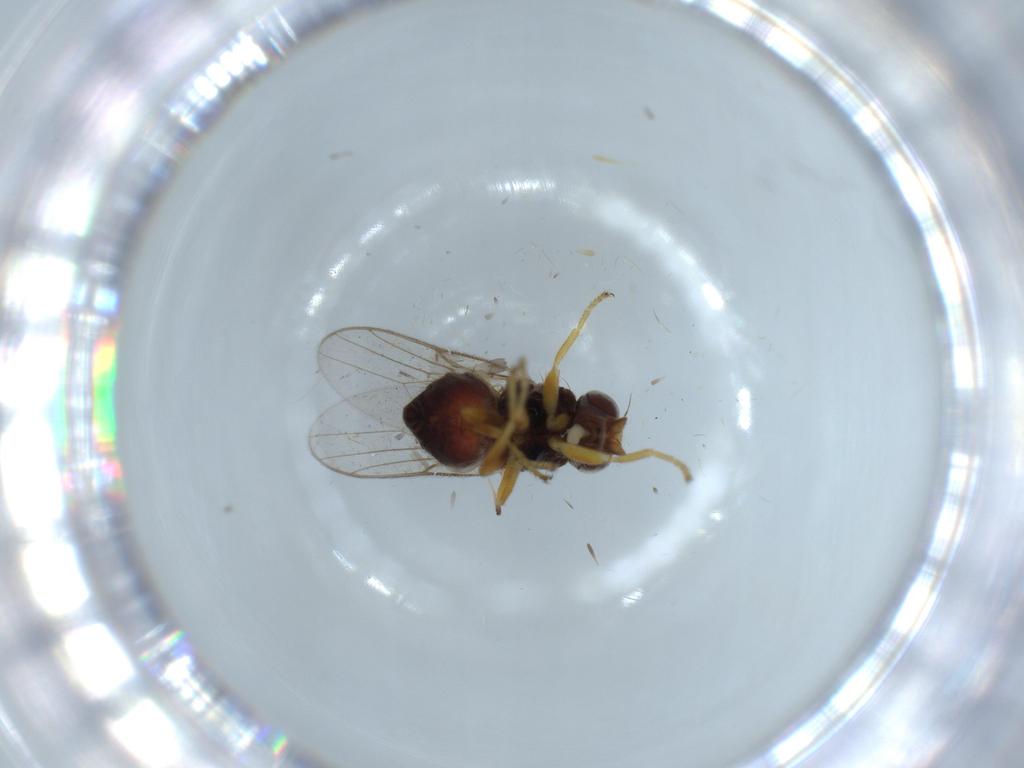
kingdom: Animalia
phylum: Arthropoda
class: Insecta
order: Diptera
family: Chloropidae
